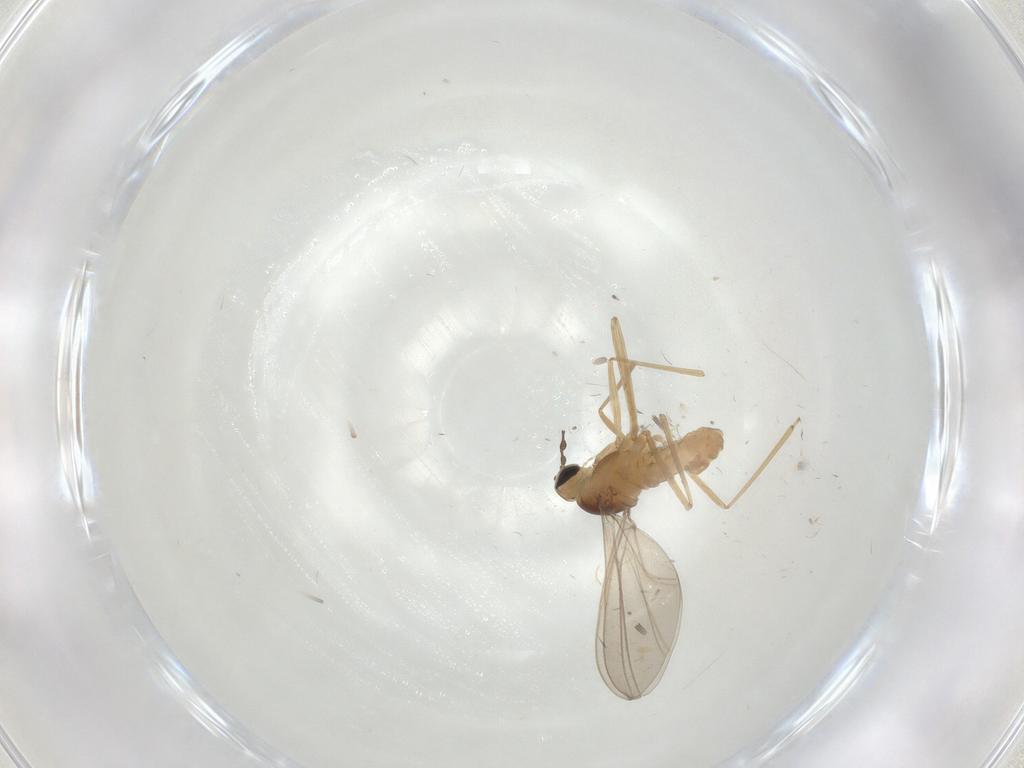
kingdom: Animalia
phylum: Arthropoda
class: Insecta
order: Diptera
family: Cecidomyiidae
